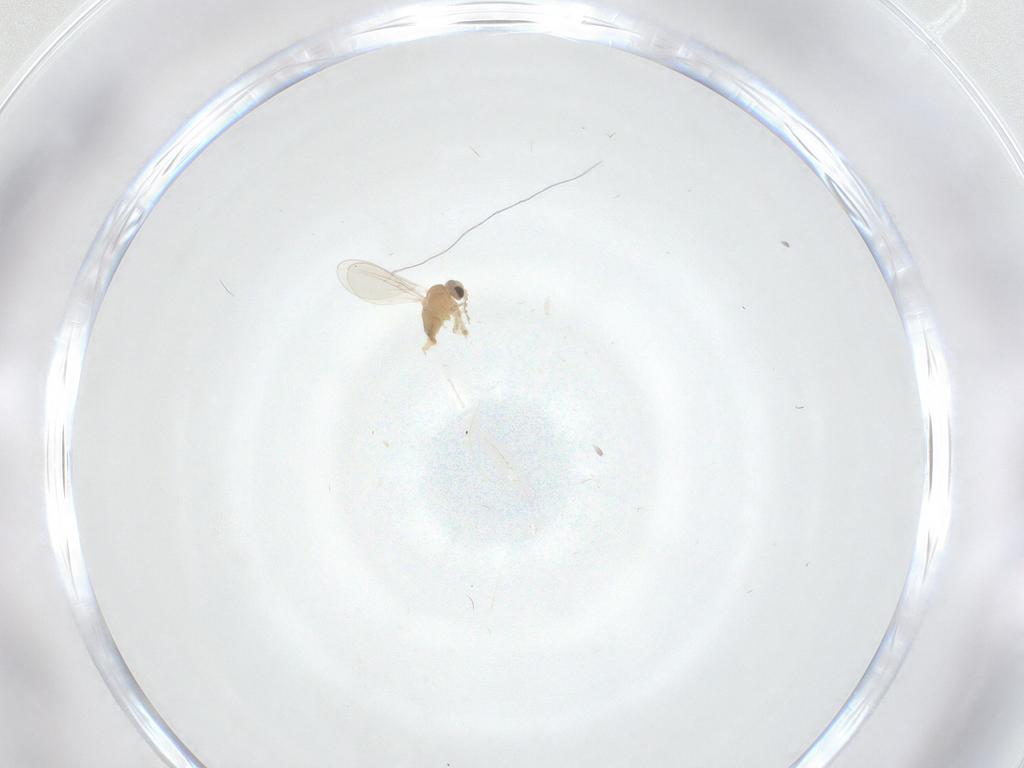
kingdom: Animalia
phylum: Arthropoda
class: Insecta
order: Diptera
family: Cecidomyiidae
